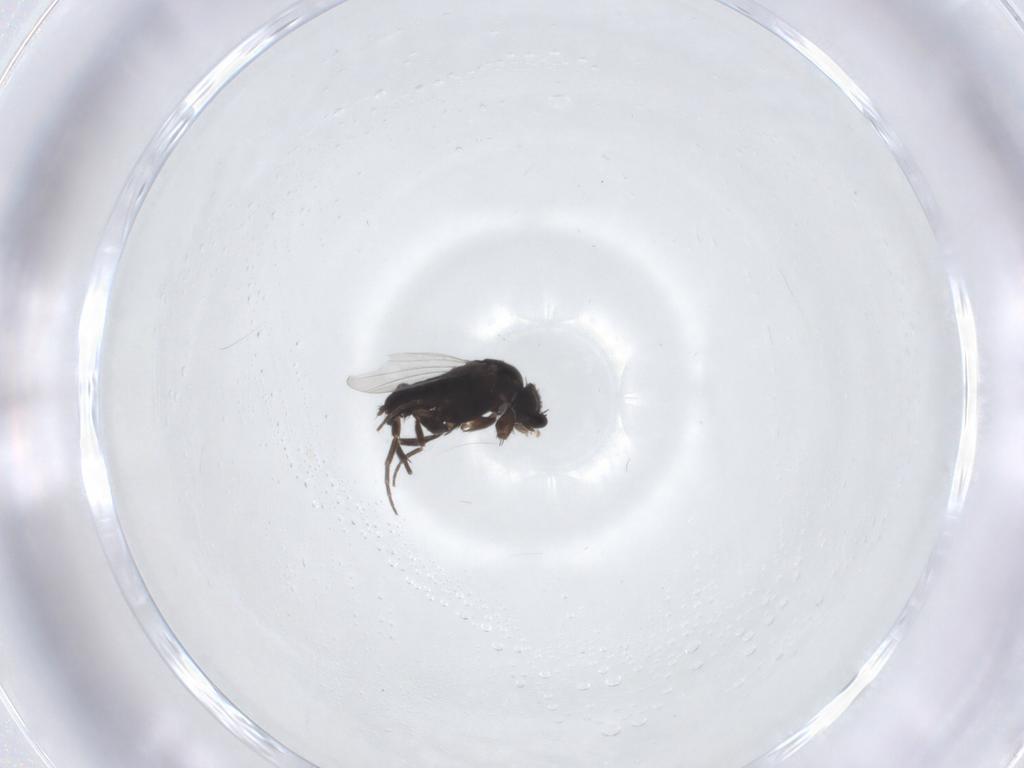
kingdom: Animalia
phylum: Arthropoda
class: Insecta
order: Diptera
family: Phoridae
